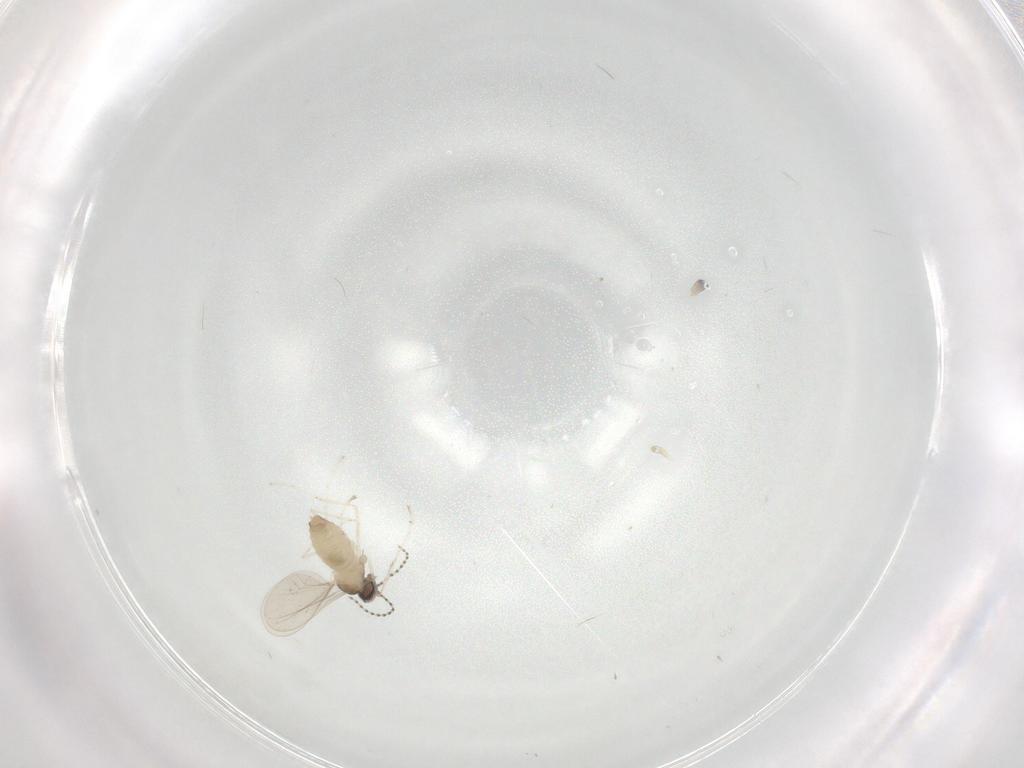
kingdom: Animalia
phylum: Arthropoda
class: Insecta
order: Diptera
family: Cecidomyiidae
